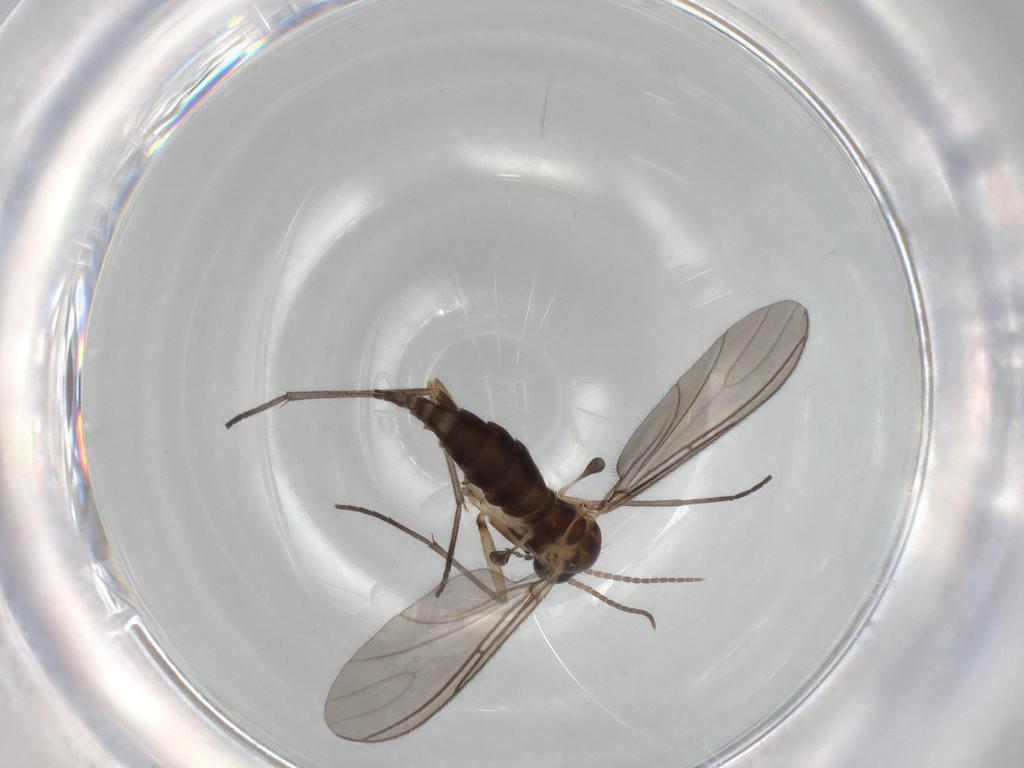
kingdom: Animalia
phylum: Arthropoda
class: Insecta
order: Diptera
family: Sciaridae
